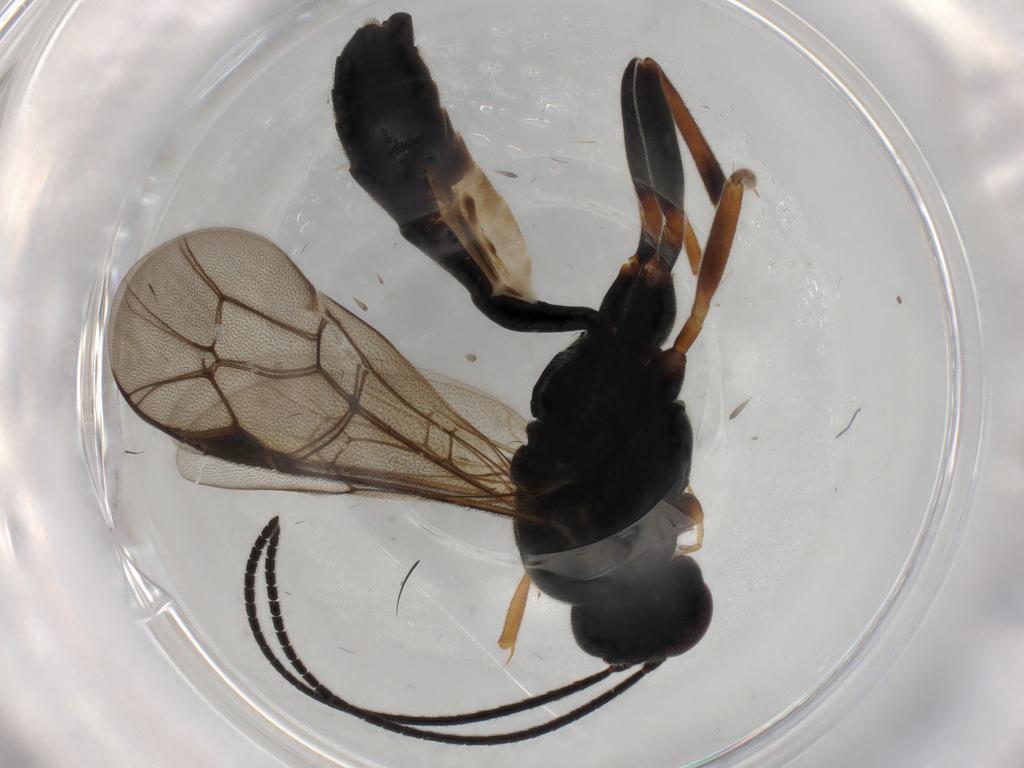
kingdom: Animalia
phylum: Arthropoda
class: Insecta
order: Hymenoptera
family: Ichneumonidae
